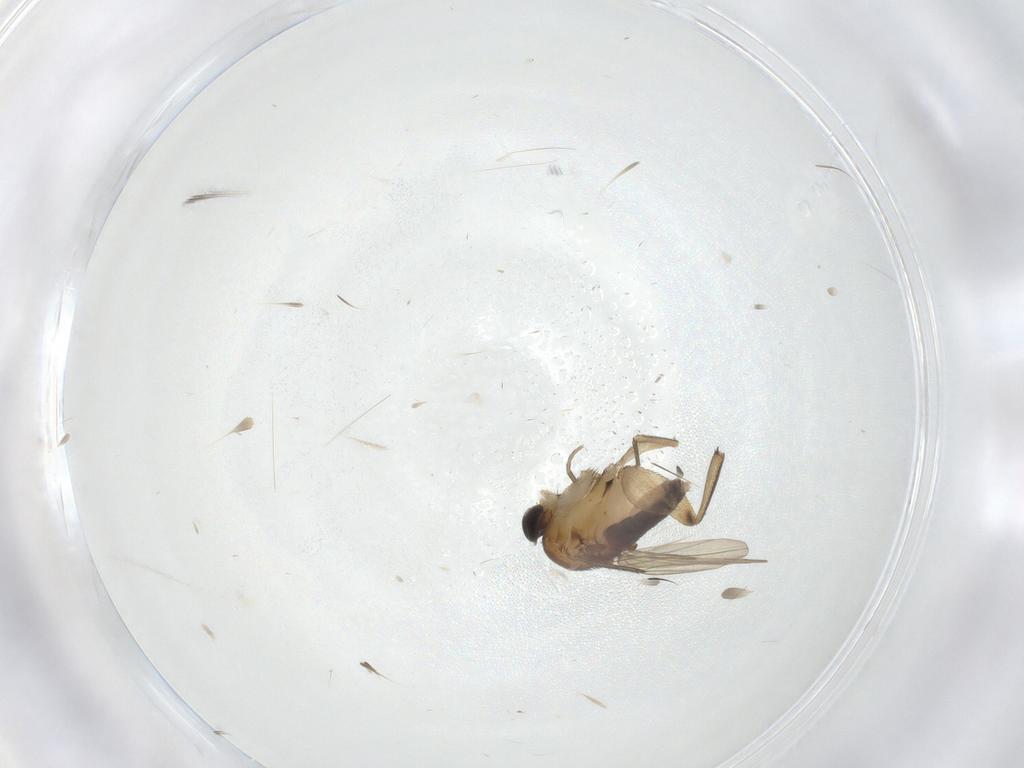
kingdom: Animalia
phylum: Arthropoda
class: Insecta
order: Diptera
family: Phoridae
